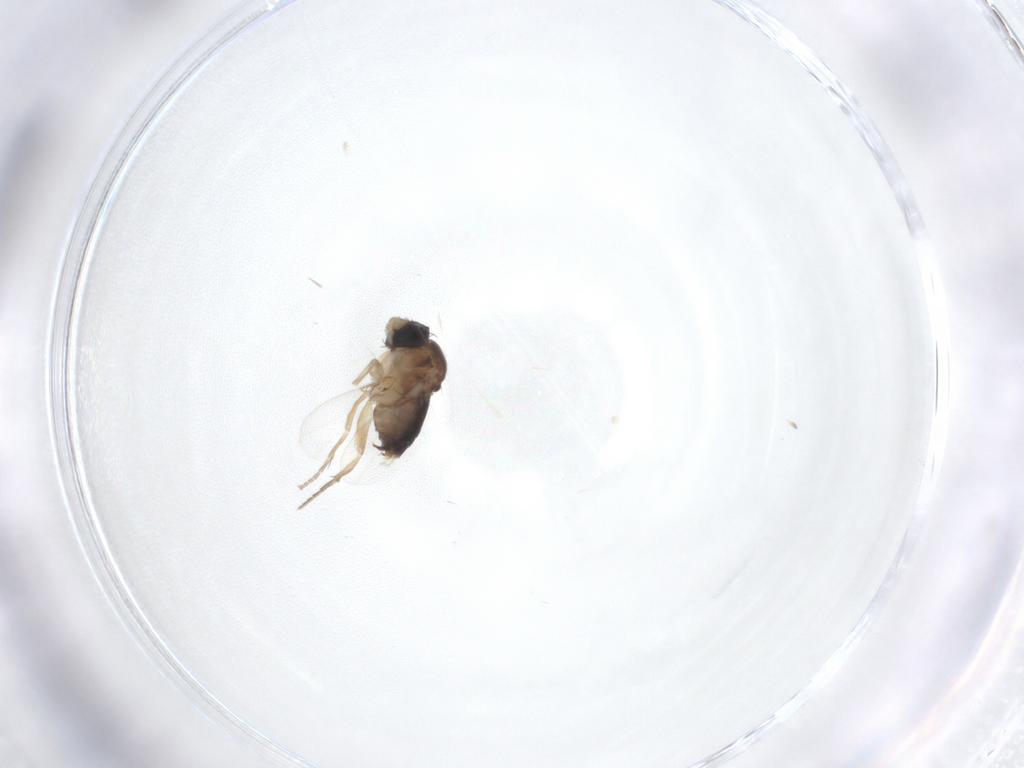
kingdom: Animalia
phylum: Arthropoda
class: Insecta
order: Diptera
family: Phoridae
